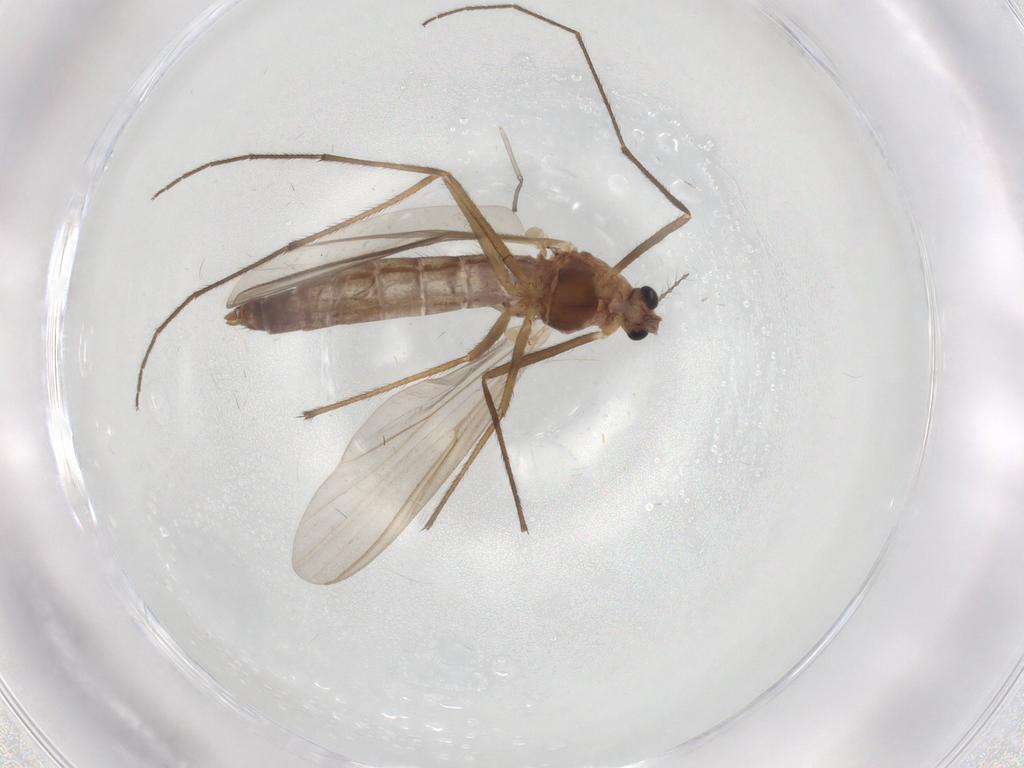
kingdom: Animalia
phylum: Arthropoda
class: Insecta
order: Diptera
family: Chironomidae
